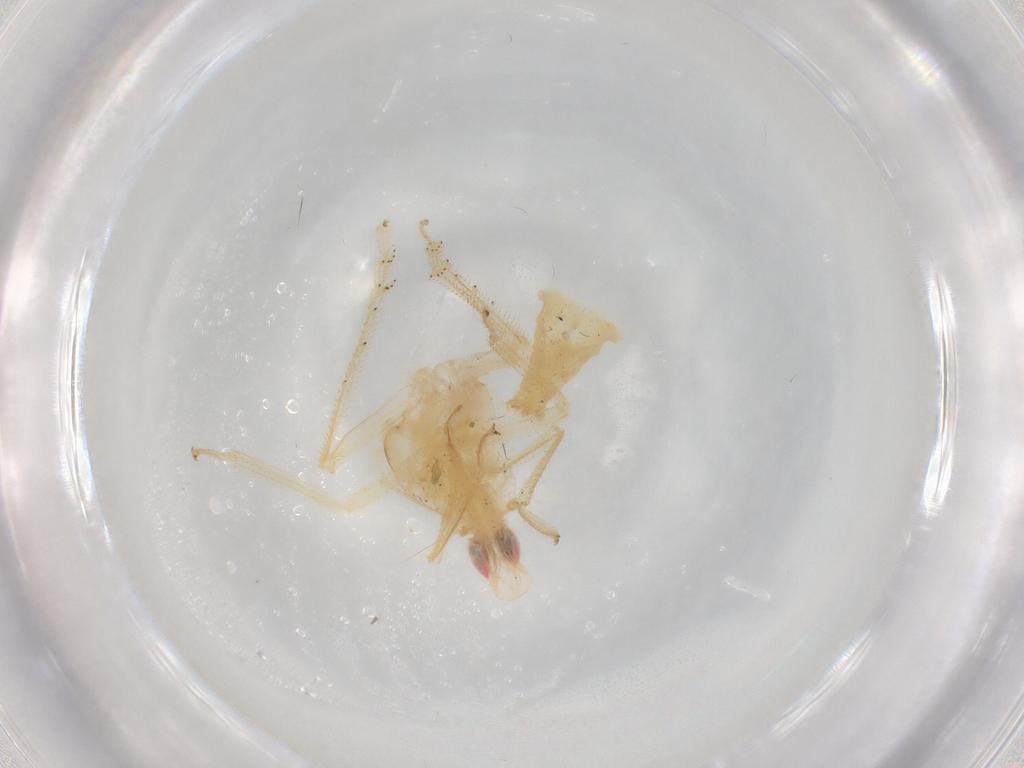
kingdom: Animalia
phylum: Arthropoda
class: Insecta
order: Hemiptera
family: Tropiduchidae
